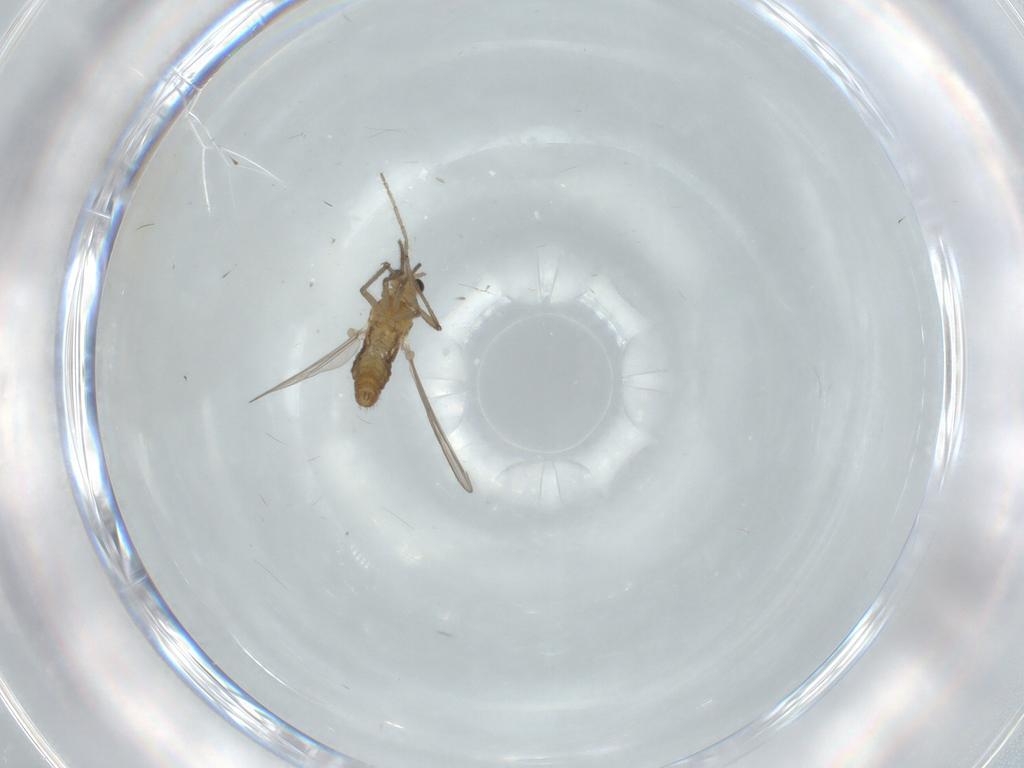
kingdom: Animalia
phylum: Arthropoda
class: Insecta
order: Diptera
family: Chironomidae
